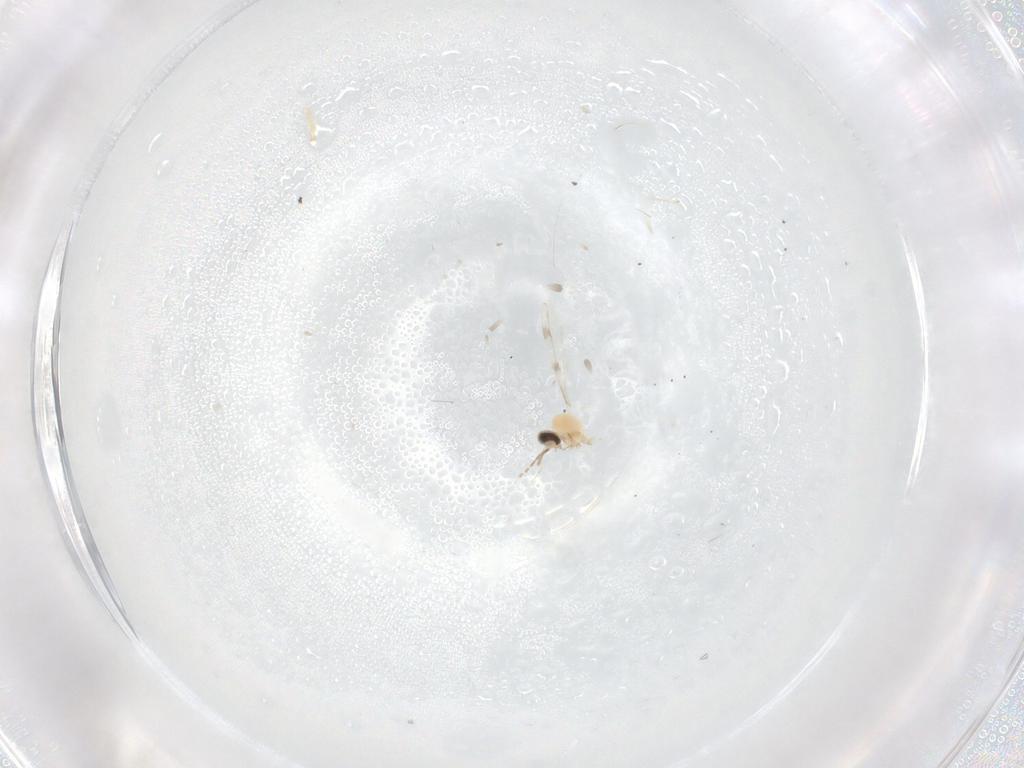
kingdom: Animalia
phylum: Arthropoda
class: Insecta
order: Diptera
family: Cecidomyiidae
